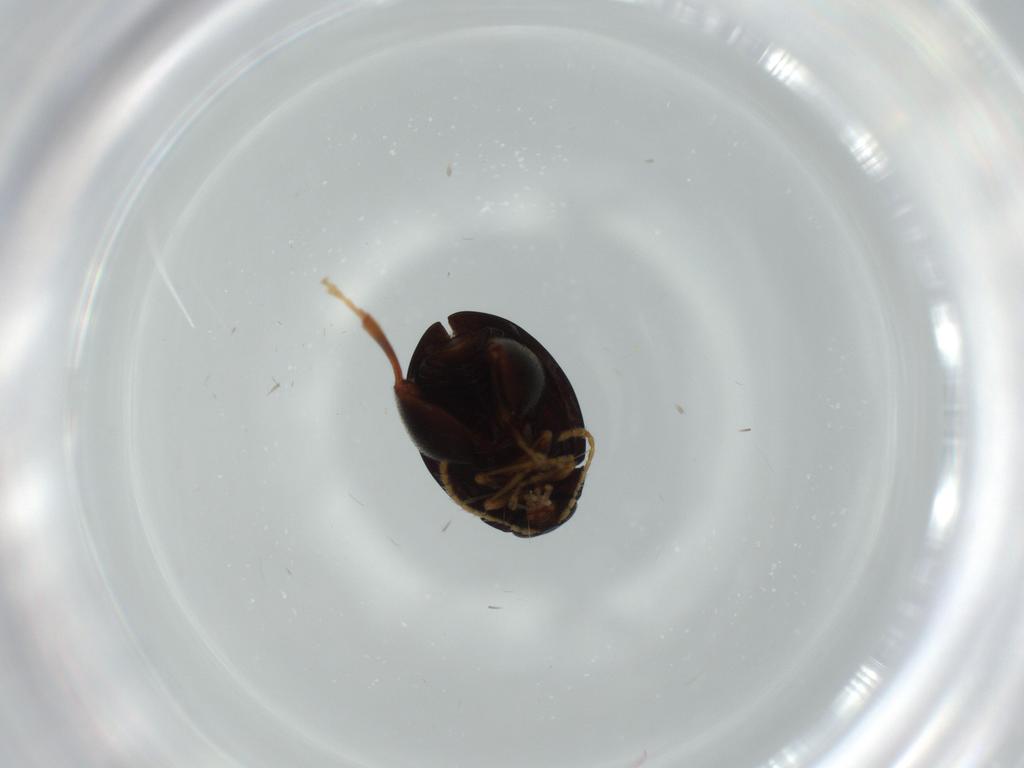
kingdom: Animalia
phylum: Arthropoda
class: Insecta
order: Coleoptera
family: Chrysomelidae
